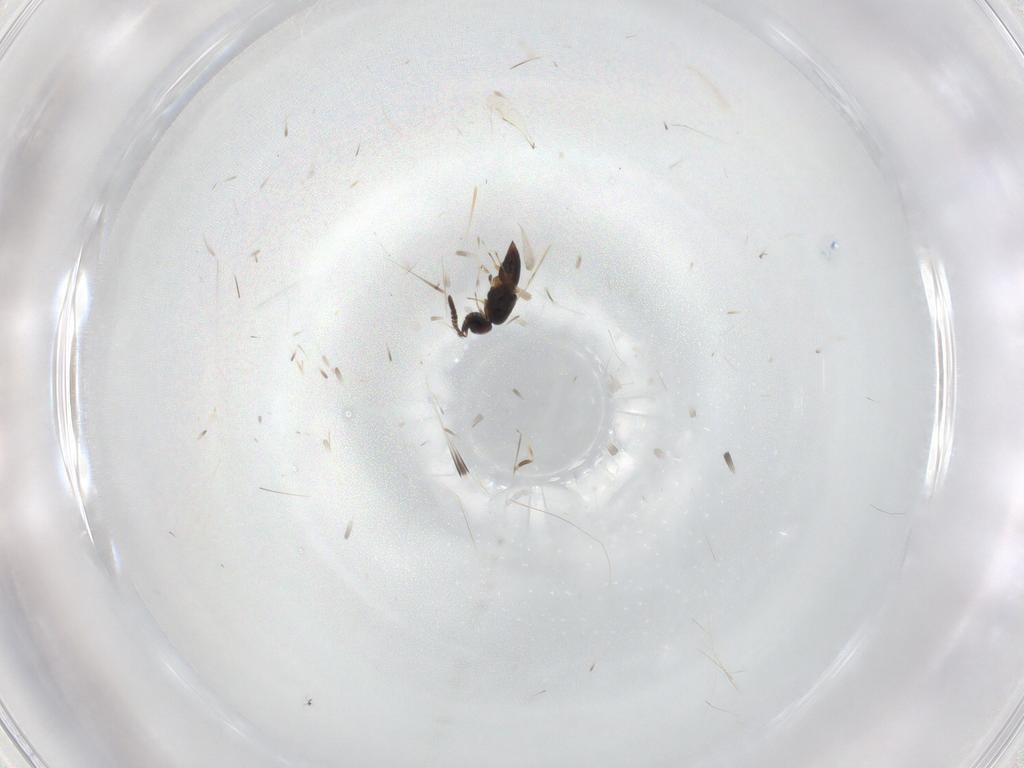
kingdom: Animalia
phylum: Arthropoda
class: Insecta
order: Hymenoptera
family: Ceraphronidae
